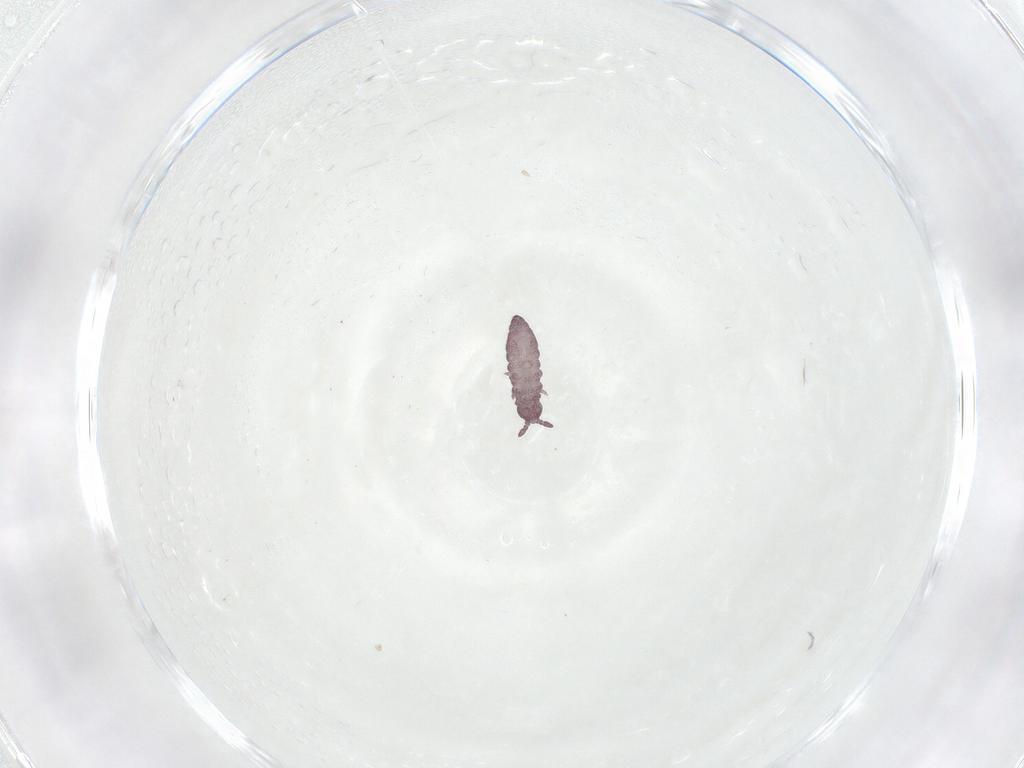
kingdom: Animalia
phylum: Arthropoda
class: Collembola
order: Poduromorpha
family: Hypogastruridae
